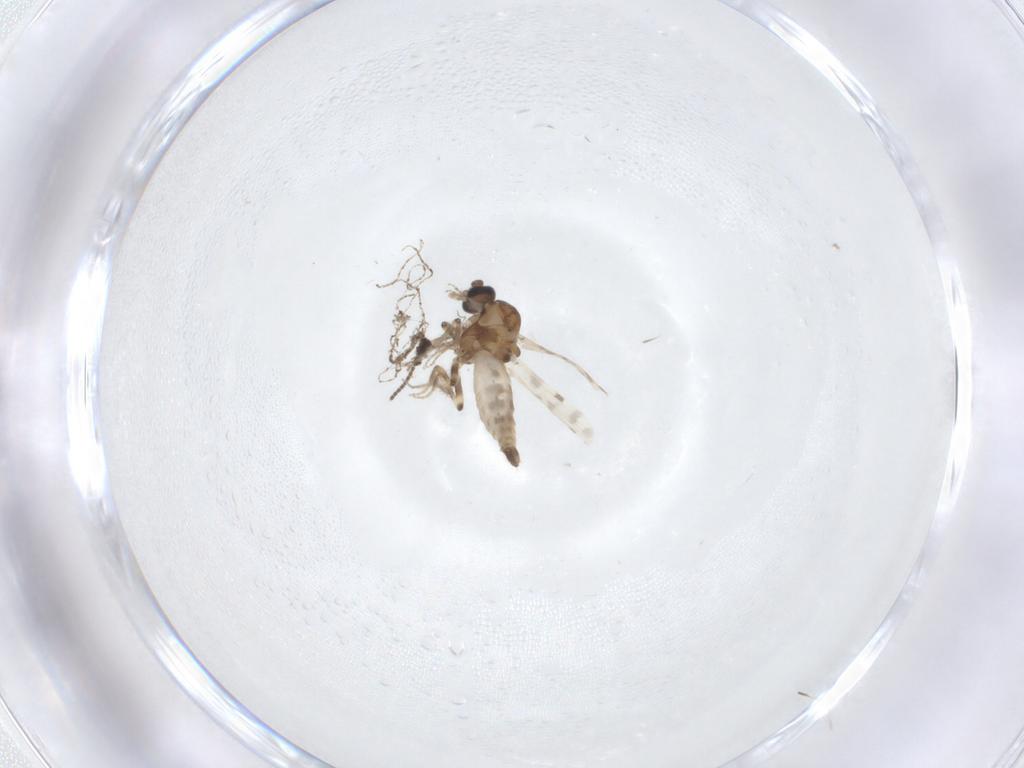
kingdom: Animalia
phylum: Arthropoda
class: Insecta
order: Diptera
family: Sciaridae
